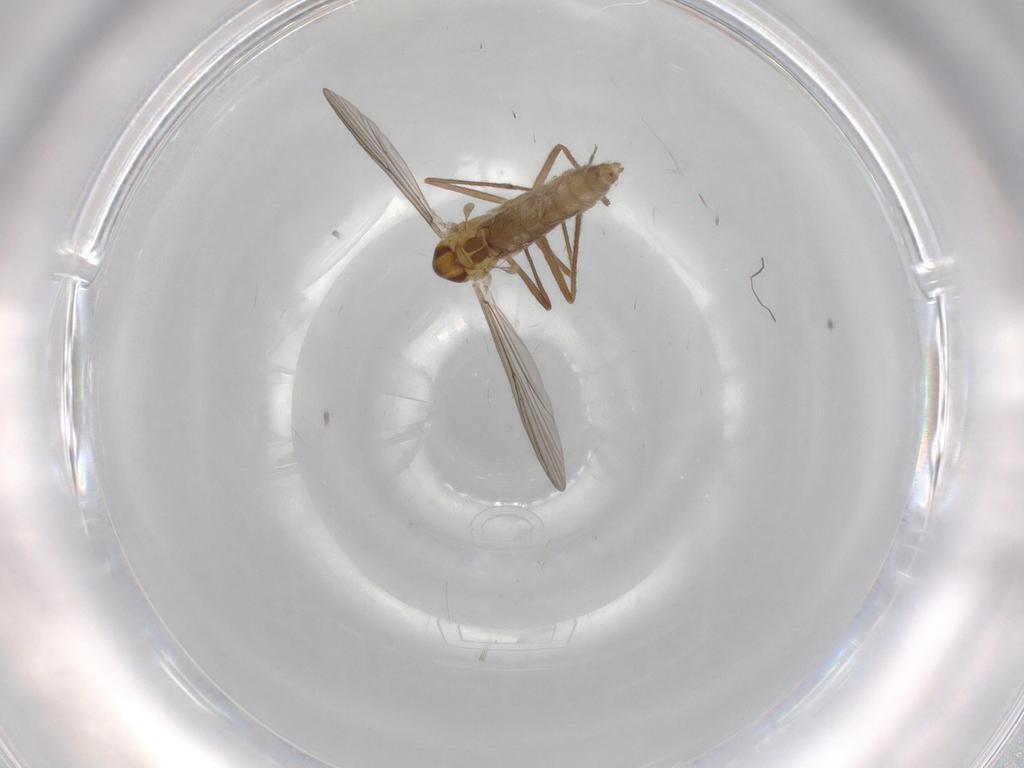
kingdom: Animalia
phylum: Arthropoda
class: Insecta
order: Diptera
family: Chironomidae
